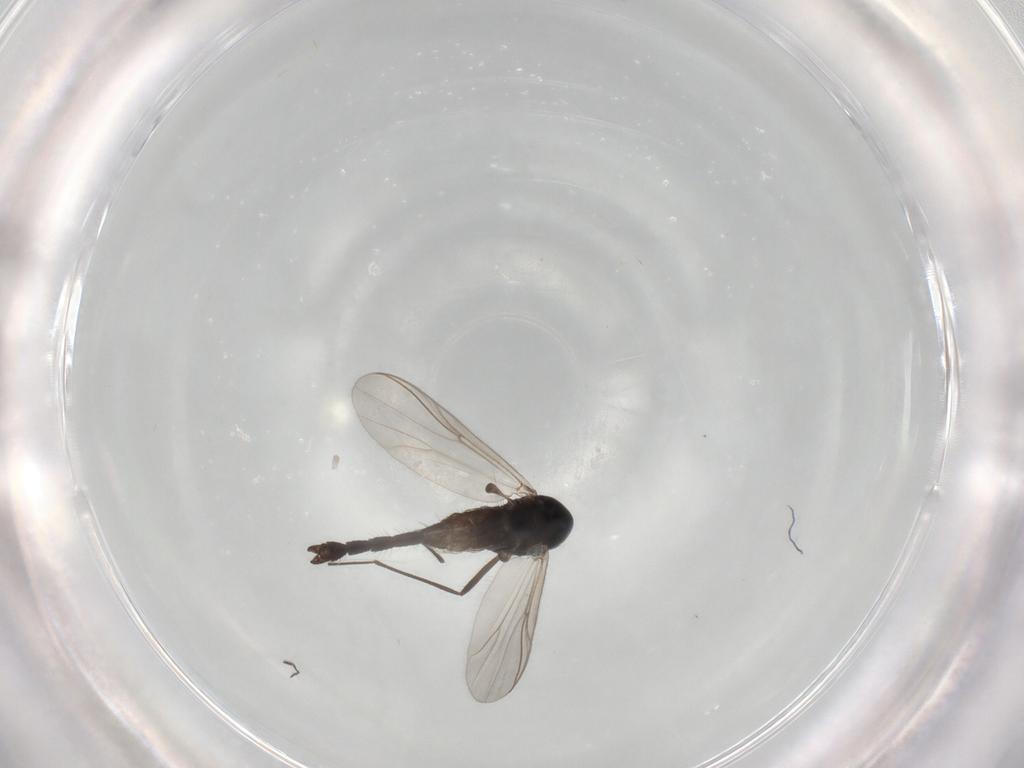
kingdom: Animalia
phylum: Arthropoda
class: Insecta
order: Diptera
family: Chironomidae
